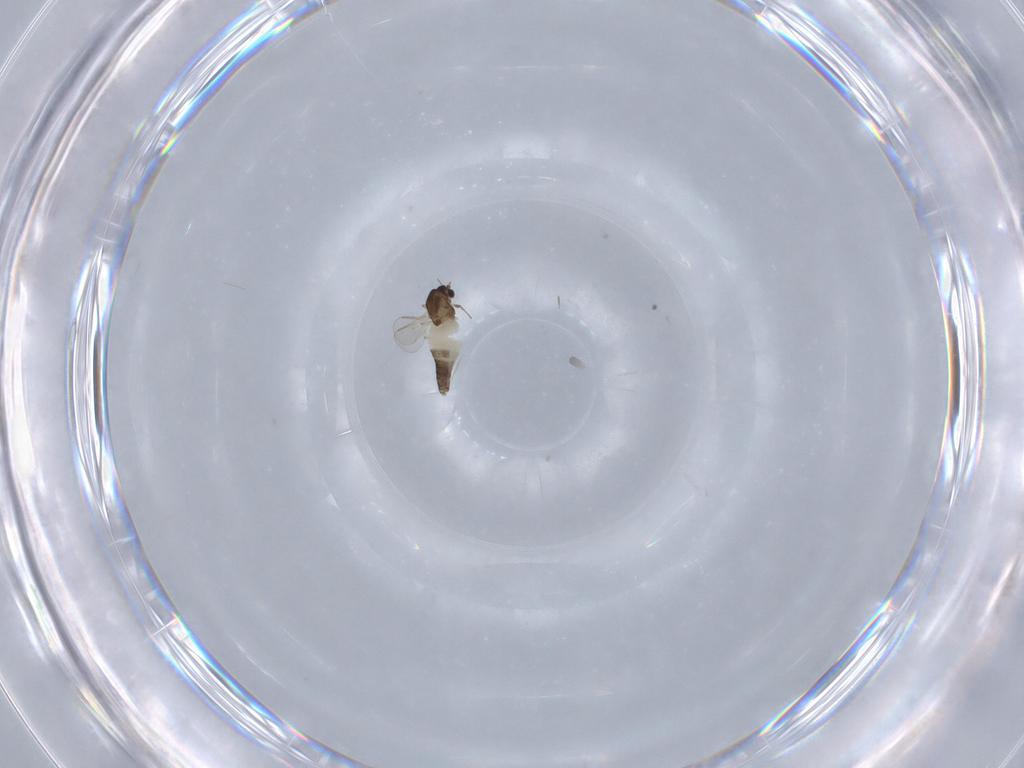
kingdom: Animalia
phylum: Arthropoda
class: Insecta
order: Diptera
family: Chironomidae
